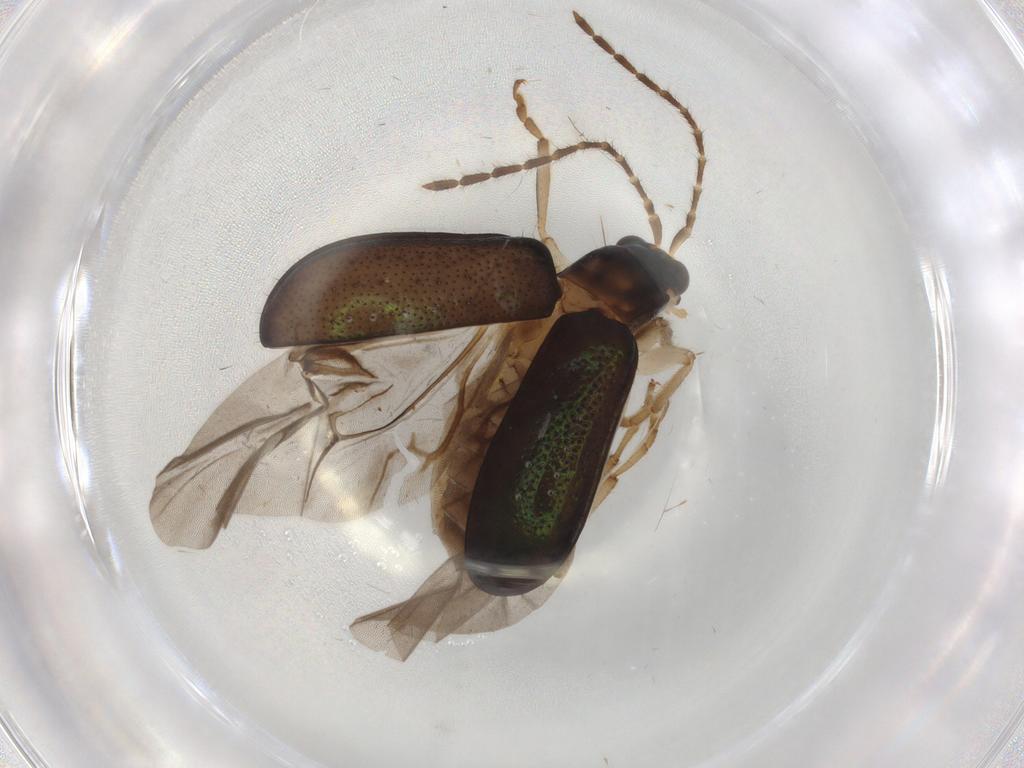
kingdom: Animalia
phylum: Arthropoda
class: Insecta
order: Coleoptera
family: Chrysomelidae
